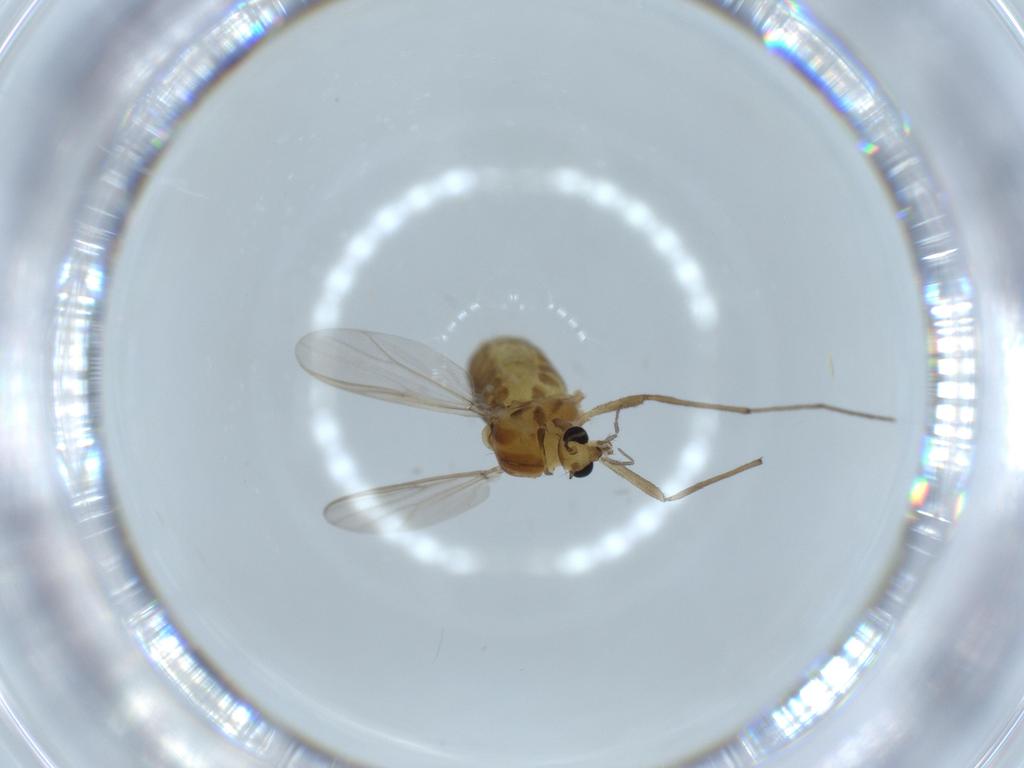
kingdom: Animalia
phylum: Arthropoda
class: Insecta
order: Diptera
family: Chironomidae
